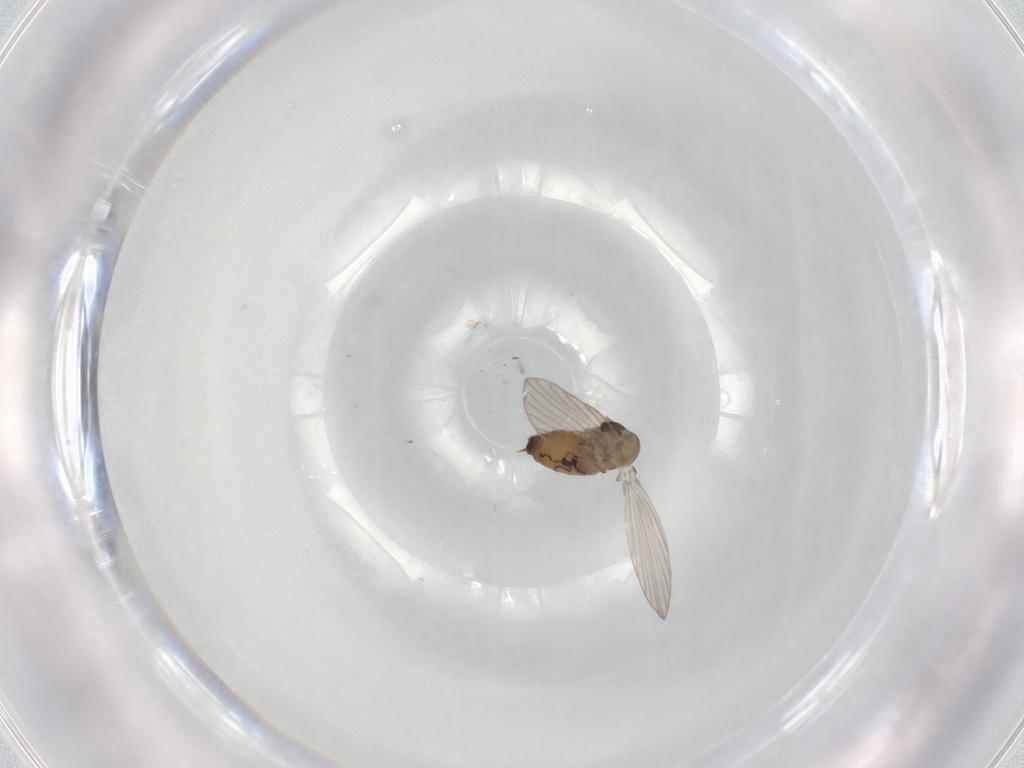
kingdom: Animalia
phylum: Arthropoda
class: Insecta
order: Diptera
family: Psychodidae
